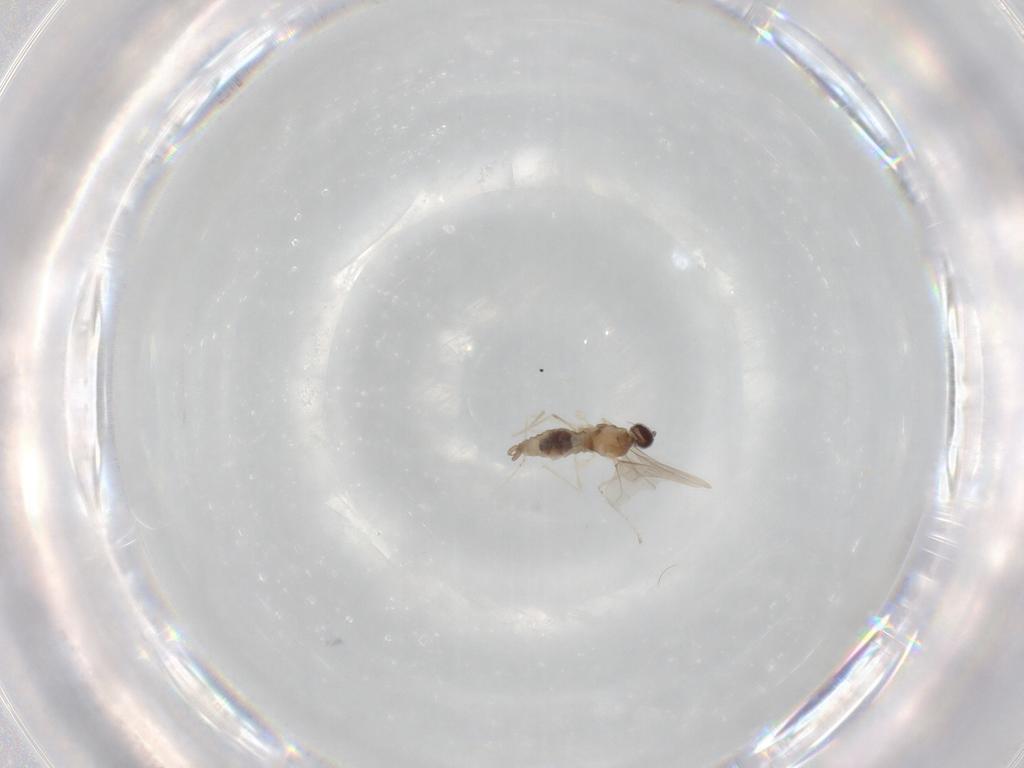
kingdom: Animalia
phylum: Arthropoda
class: Insecta
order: Diptera
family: Cecidomyiidae
